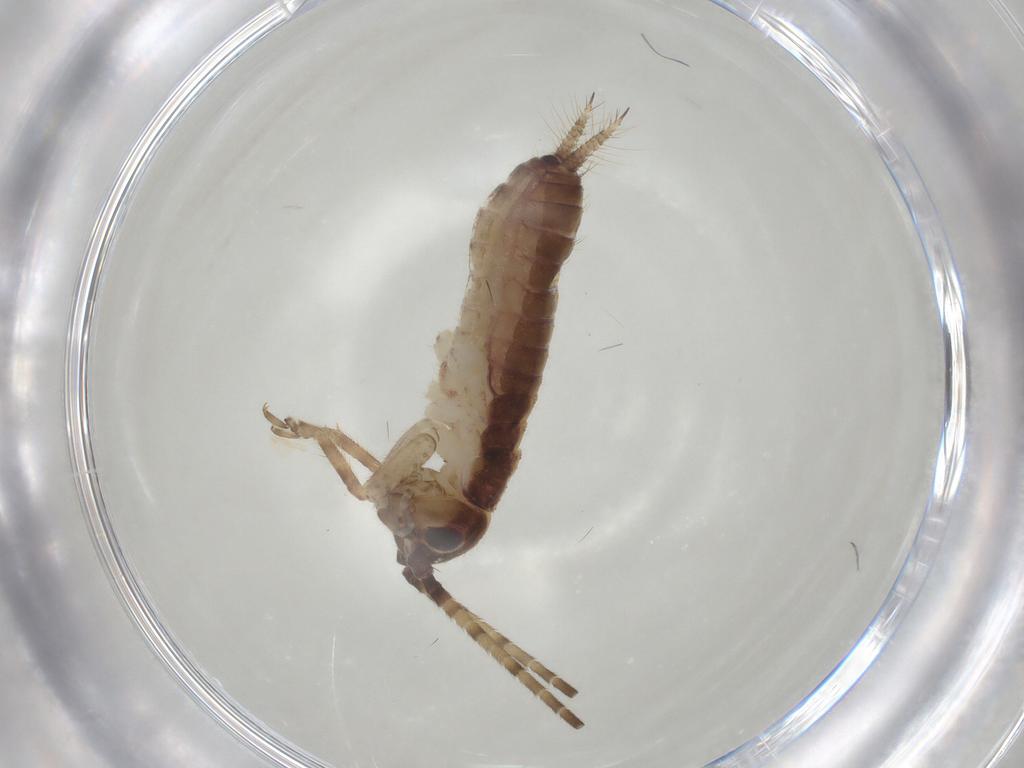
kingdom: Animalia
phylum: Arthropoda
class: Insecta
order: Orthoptera
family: Gryllidae
